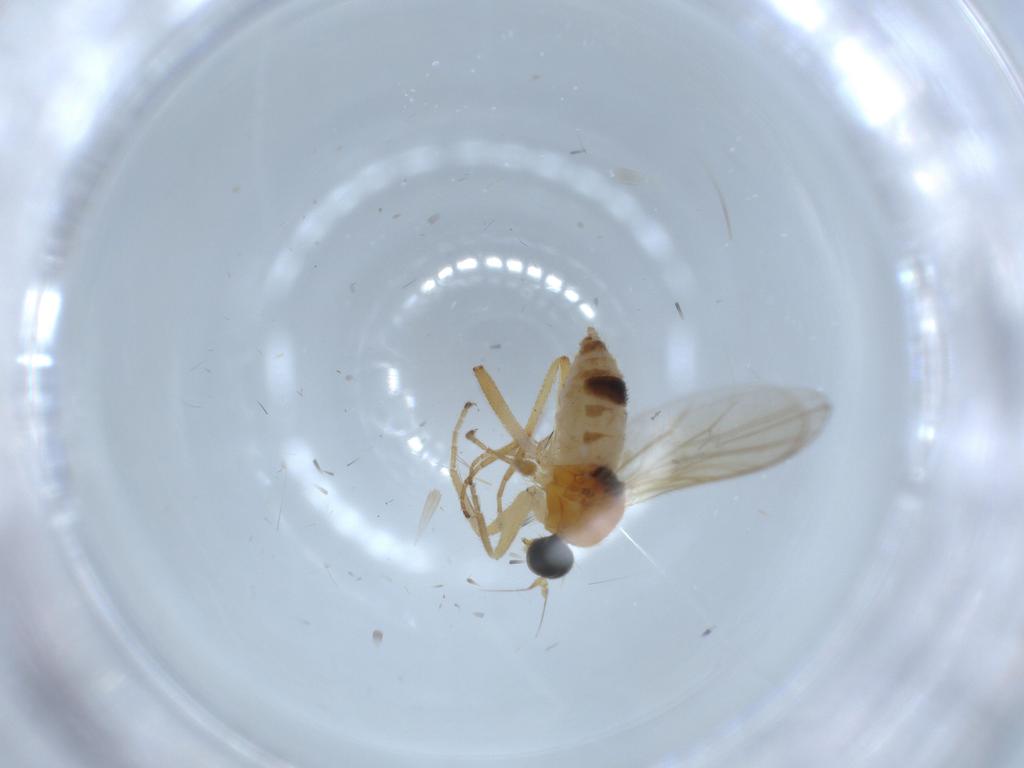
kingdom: Animalia
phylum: Arthropoda
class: Insecta
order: Diptera
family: Hybotidae
